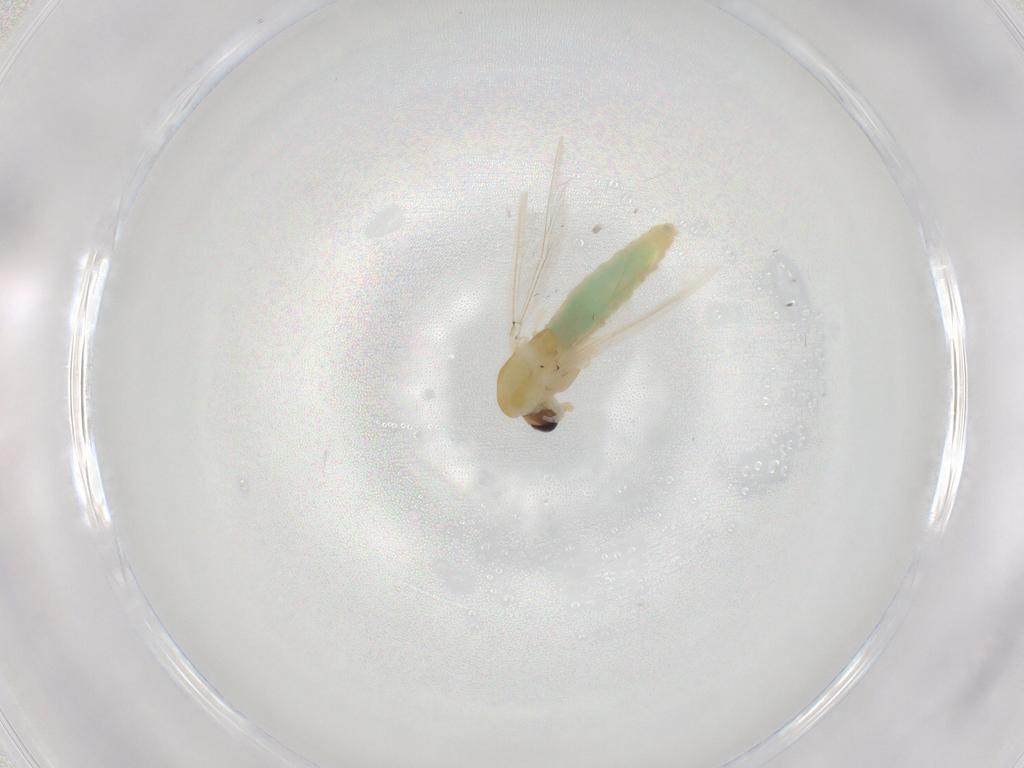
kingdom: Animalia
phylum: Arthropoda
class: Insecta
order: Diptera
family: Chironomidae
